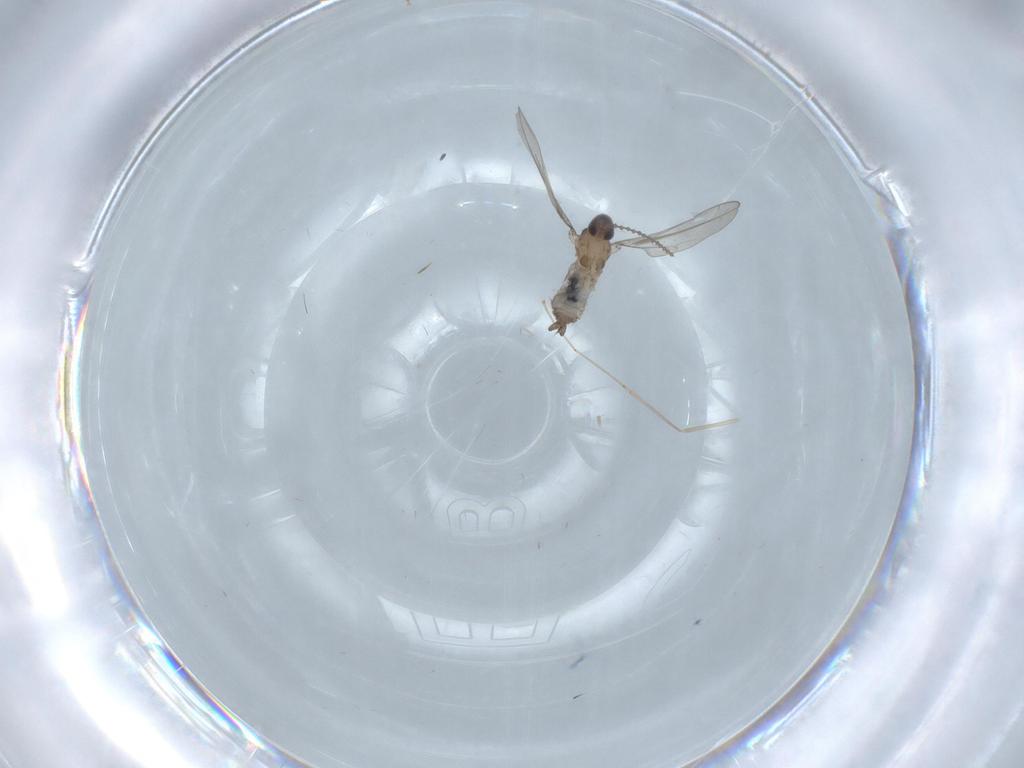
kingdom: Animalia
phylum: Arthropoda
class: Insecta
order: Diptera
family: Cecidomyiidae
